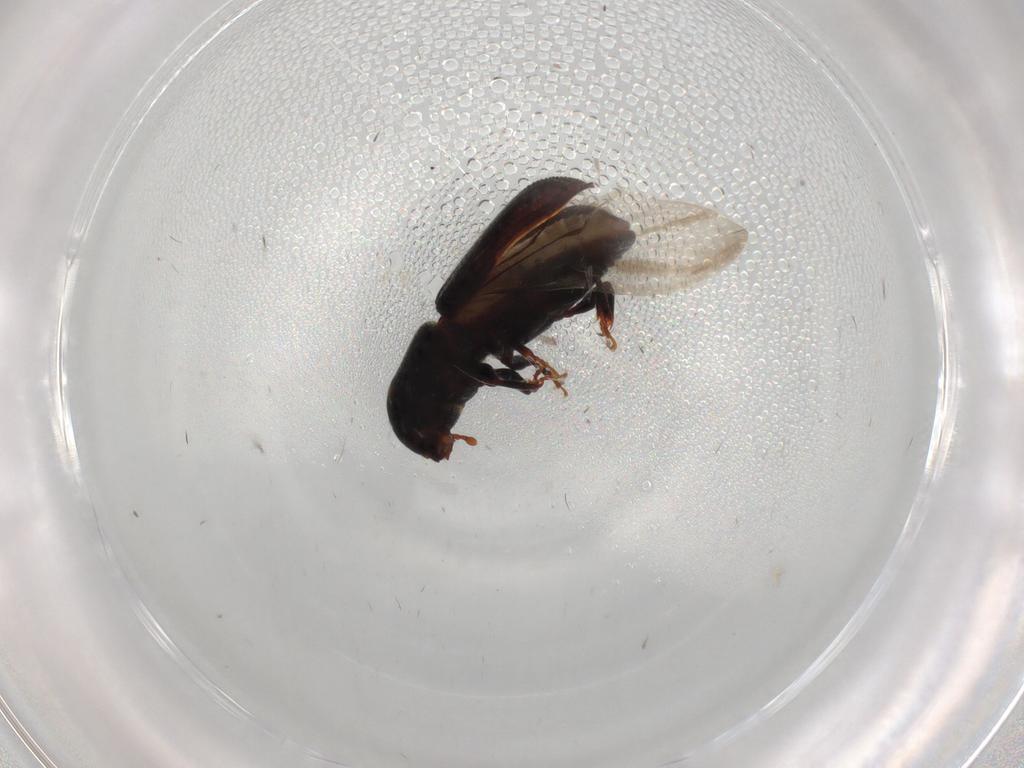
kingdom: Animalia
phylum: Arthropoda
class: Insecta
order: Coleoptera
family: Curculionidae
